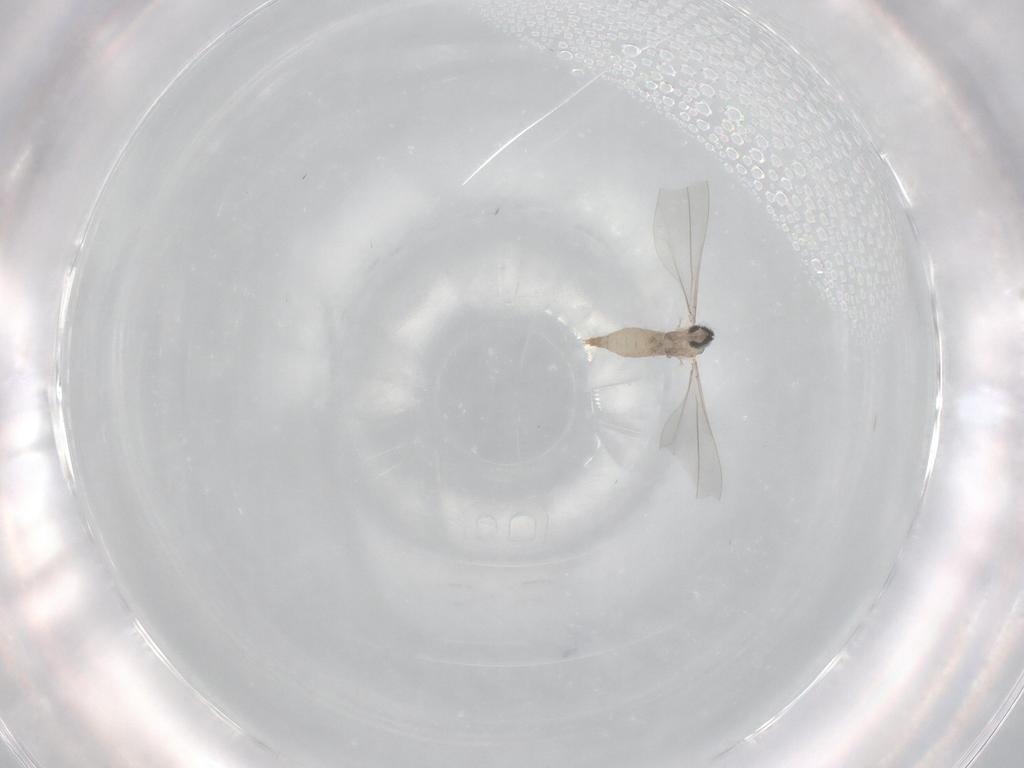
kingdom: Animalia
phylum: Arthropoda
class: Insecta
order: Diptera
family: Cecidomyiidae
